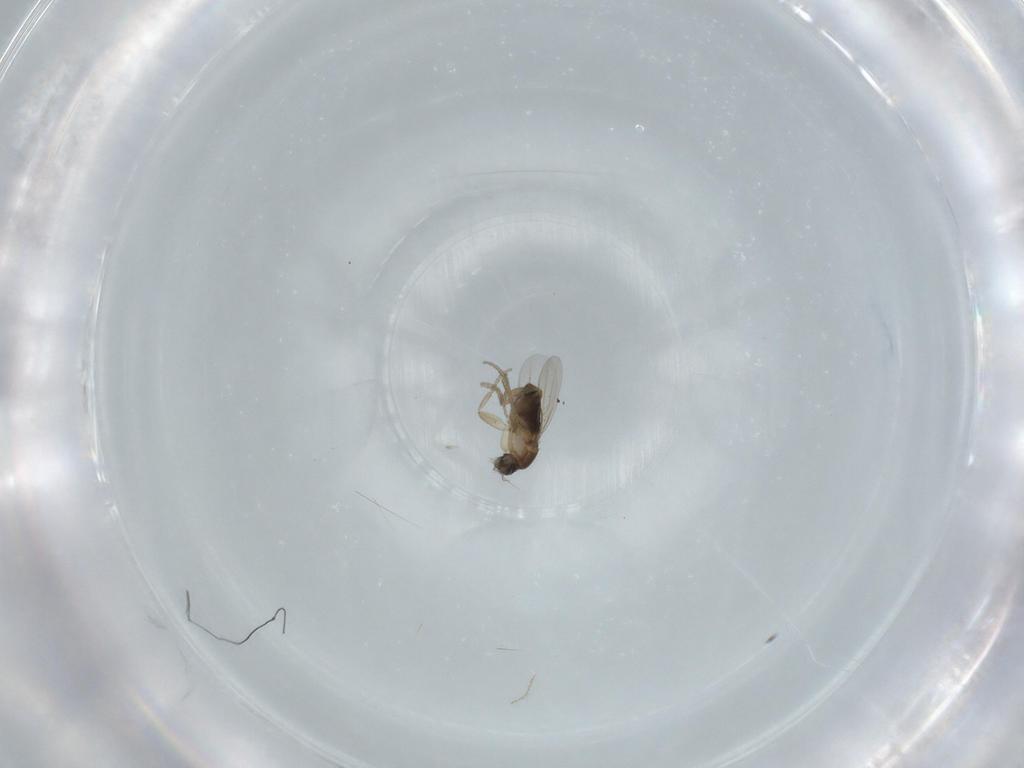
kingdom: Animalia
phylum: Arthropoda
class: Insecta
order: Diptera
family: Phoridae
